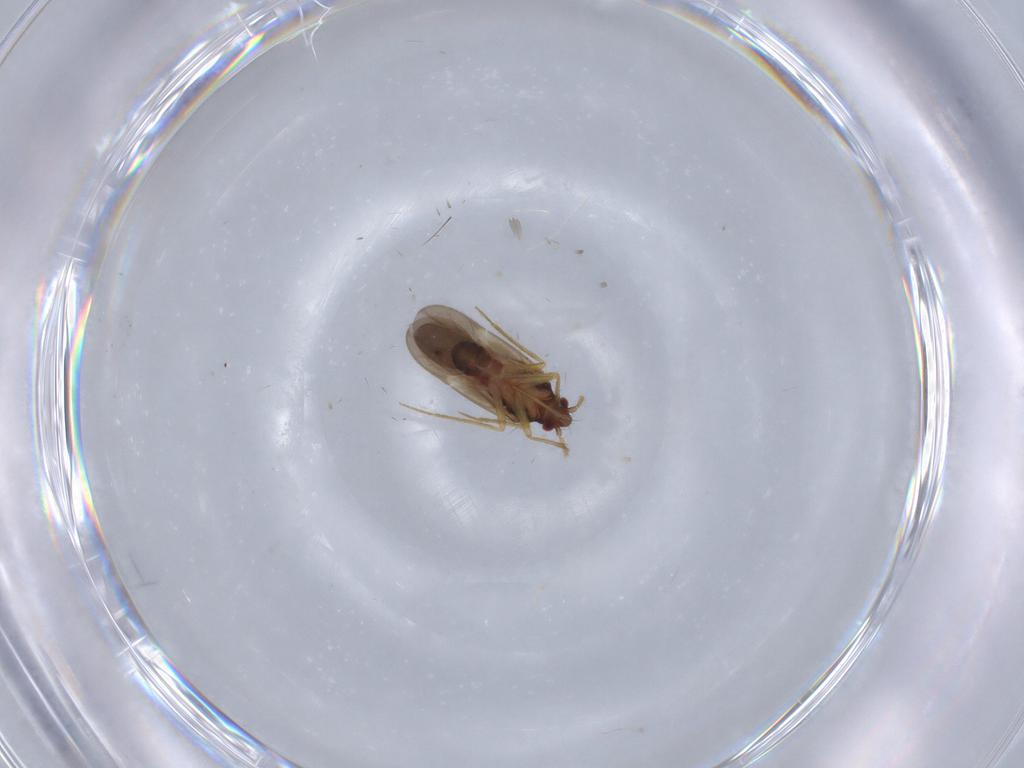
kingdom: Animalia
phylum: Arthropoda
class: Insecta
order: Hemiptera
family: Ceratocombidae
